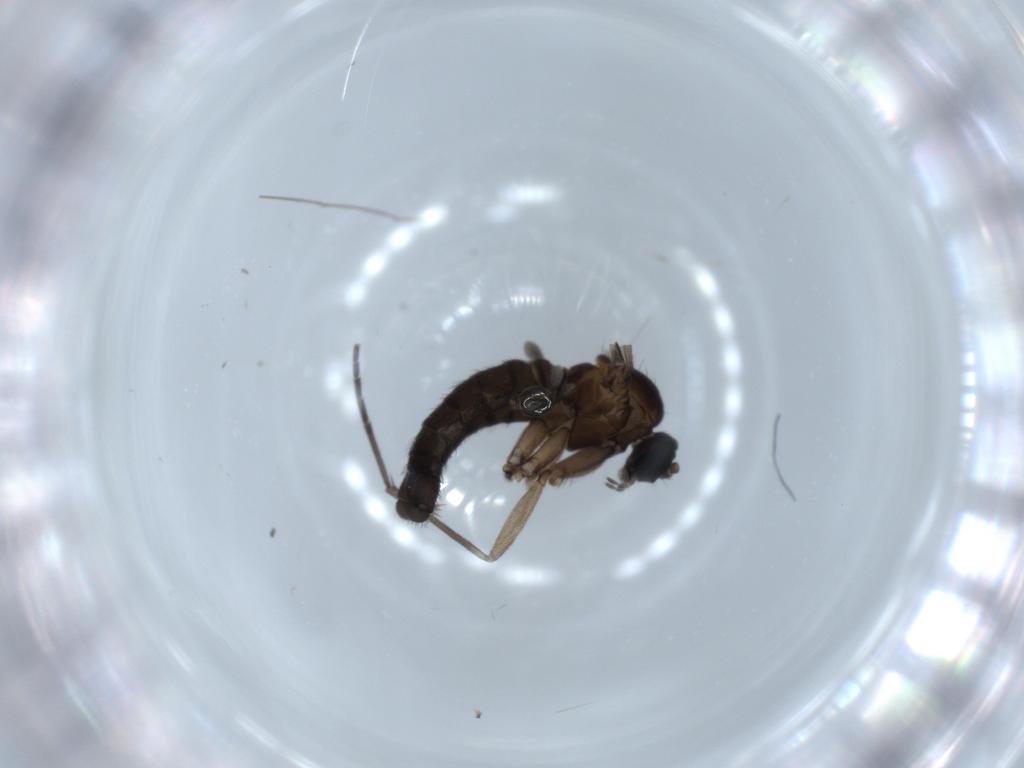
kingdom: Animalia
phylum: Arthropoda
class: Insecta
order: Diptera
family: Sciaridae
